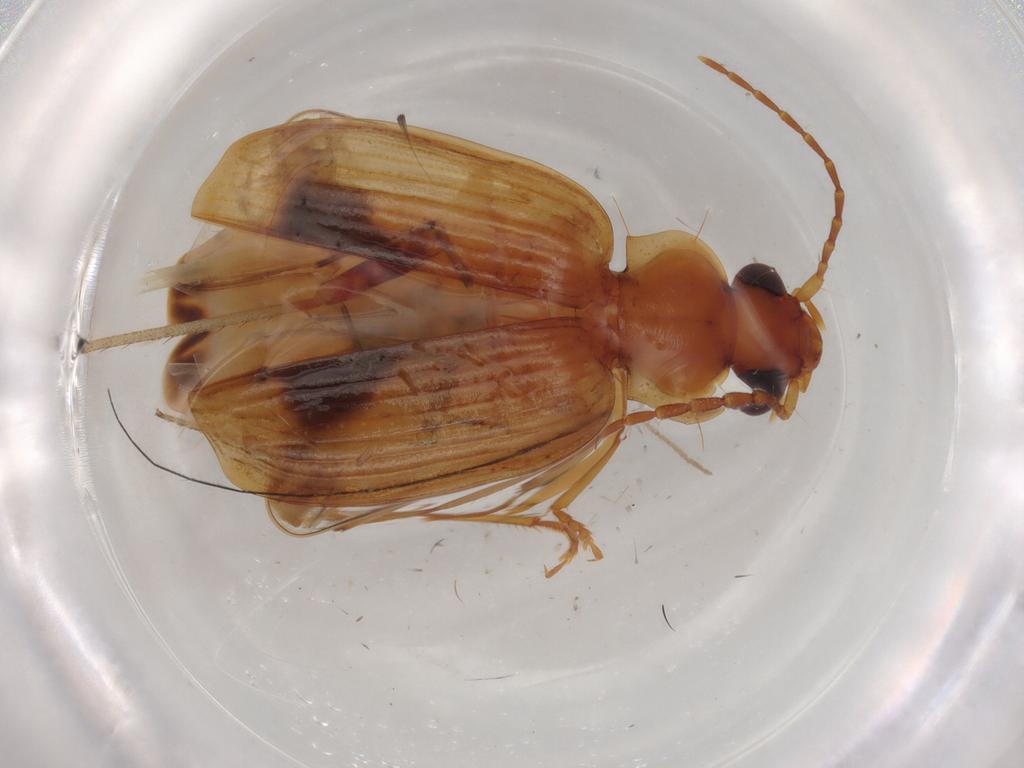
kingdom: Animalia
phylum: Arthropoda
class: Insecta
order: Coleoptera
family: Carabidae
